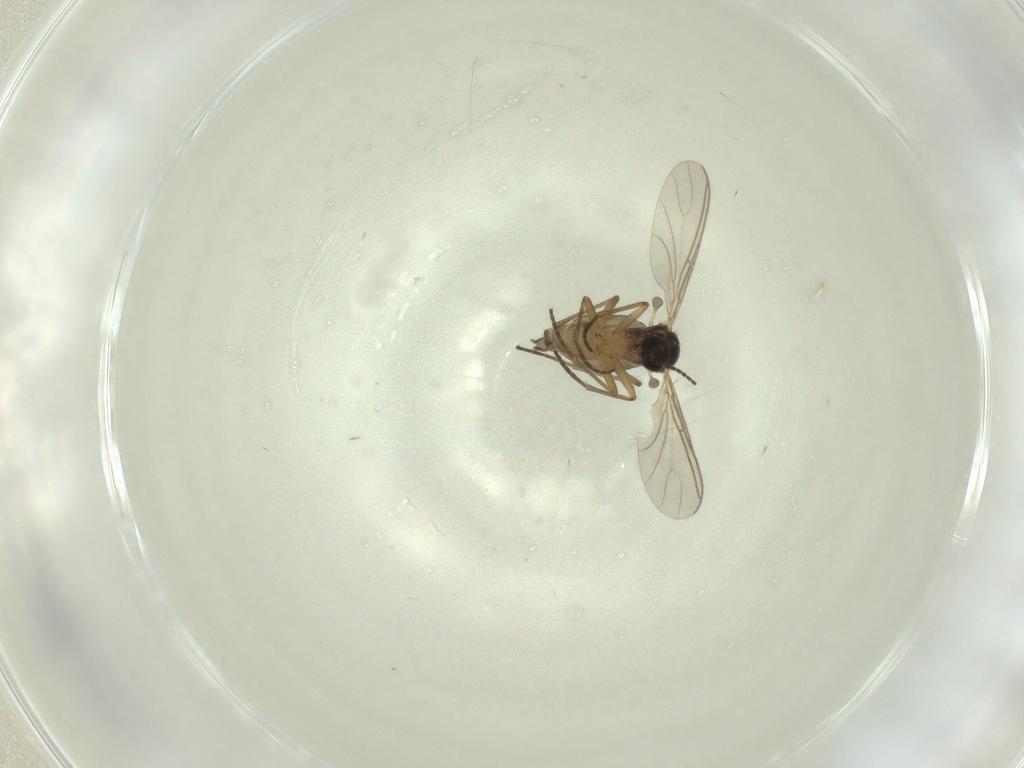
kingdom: Animalia
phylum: Arthropoda
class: Insecta
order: Diptera
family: Sciaridae
